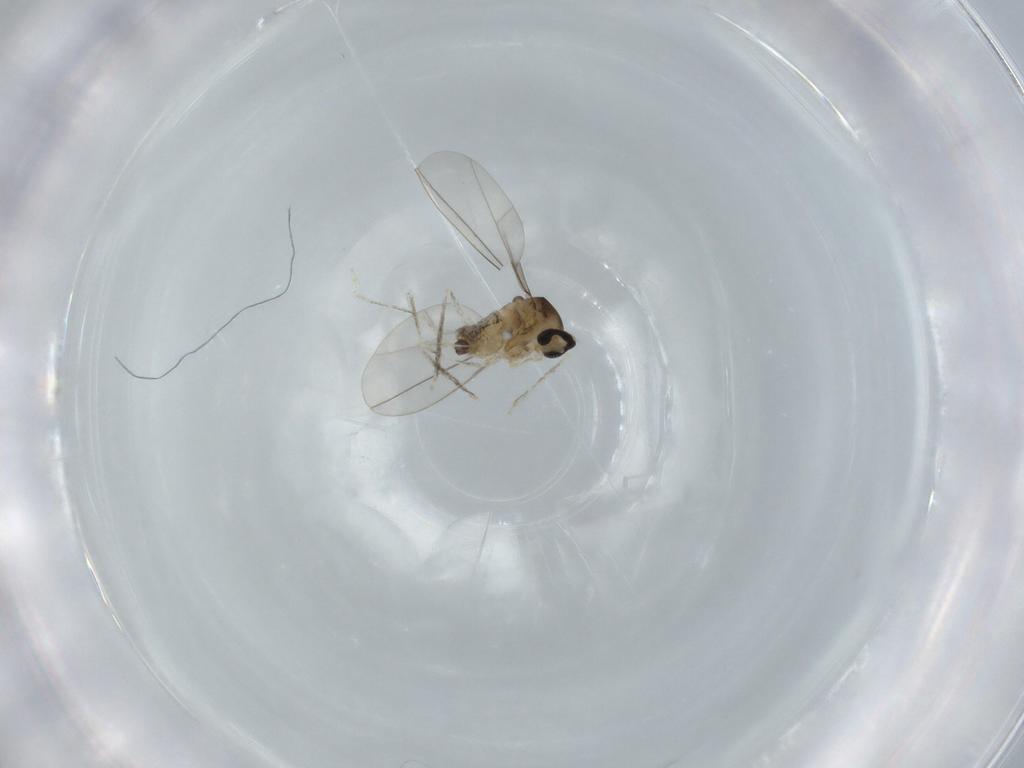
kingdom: Animalia
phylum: Arthropoda
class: Insecta
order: Diptera
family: Cecidomyiidae
